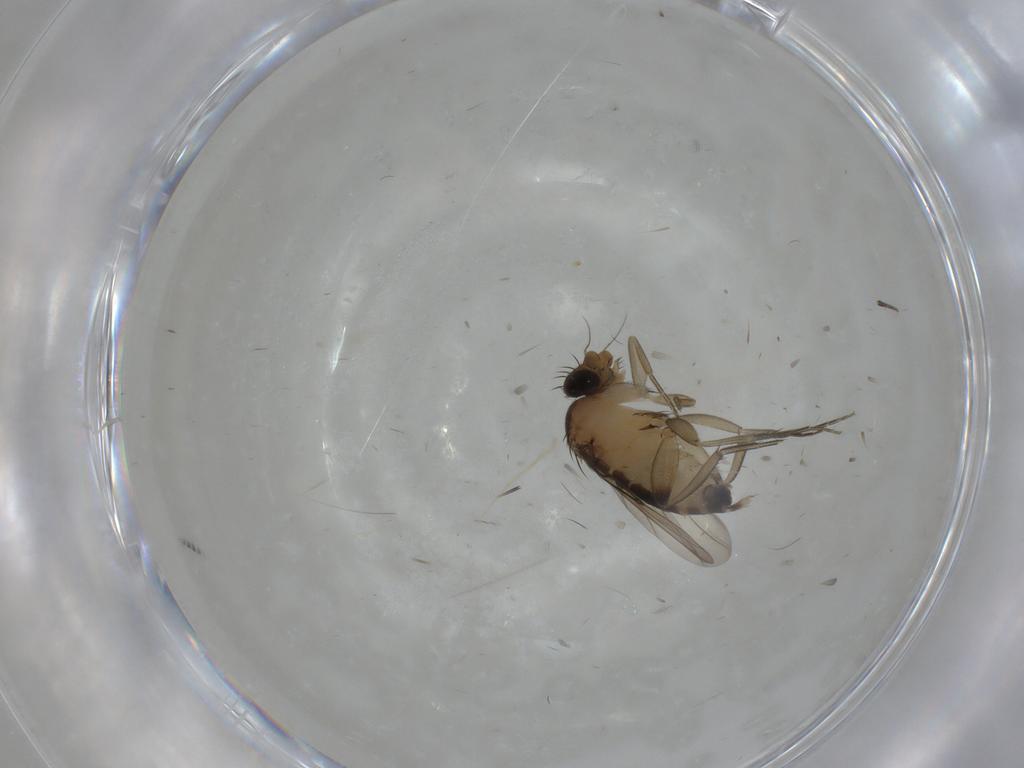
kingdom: Animalia
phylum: Arthropoda
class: Insecta
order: Diptera
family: Phoridae
